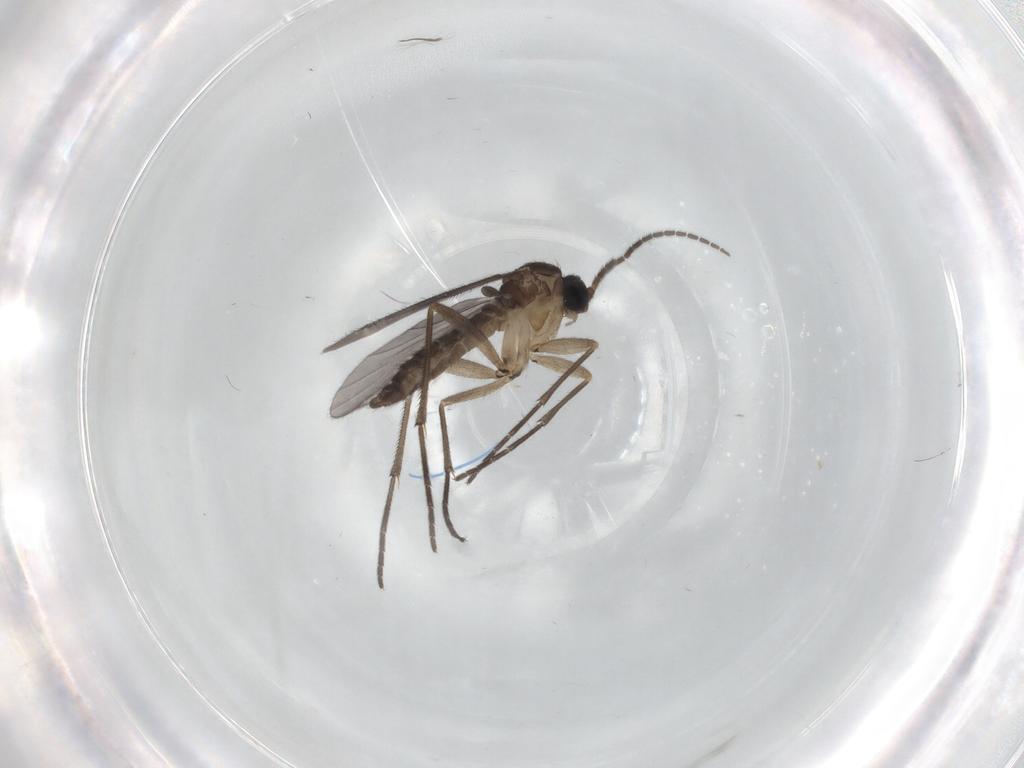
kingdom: Animalia
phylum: Arthropoda
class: Insecta
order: Diptera
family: Sciaridae
